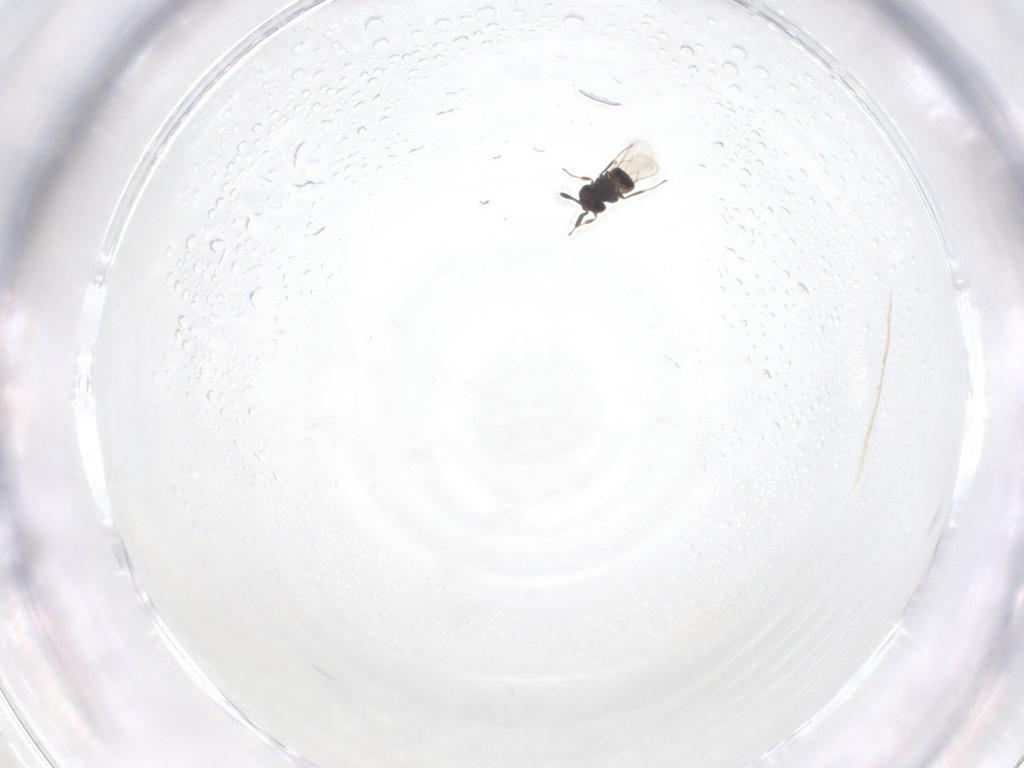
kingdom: Animalia
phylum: Arthropoda
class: Insecta
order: Hymenoptera
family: Scelionidae
